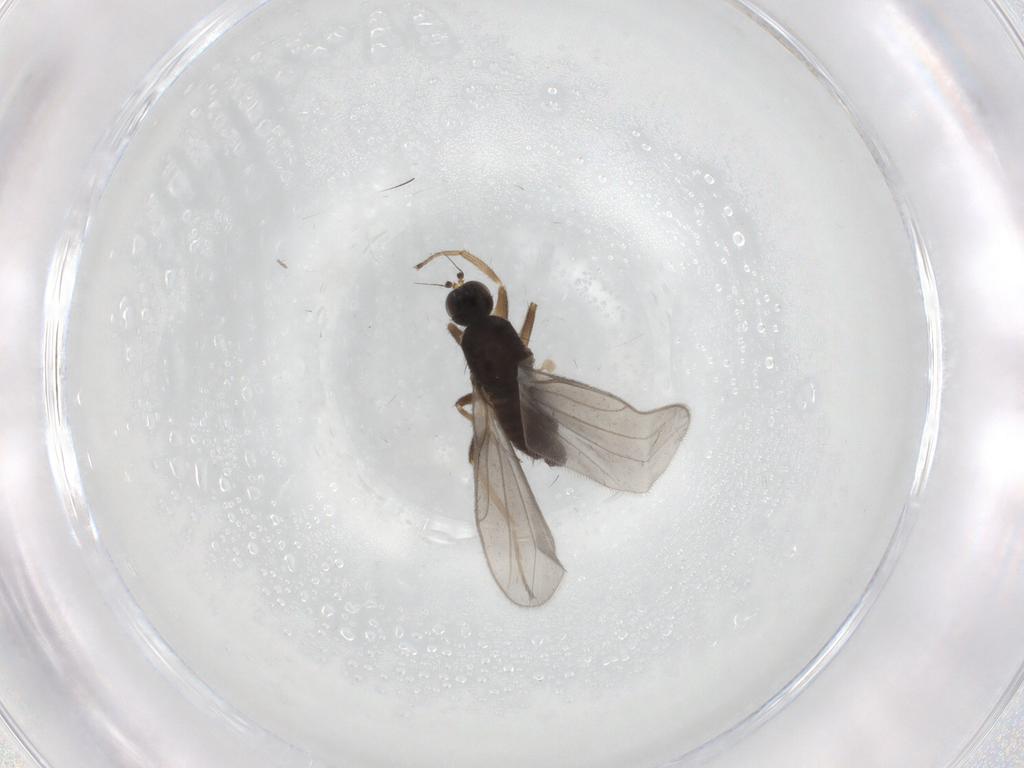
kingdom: Animalia
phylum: Arthropoda
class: Insecta
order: Diptera
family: Hybotidae
